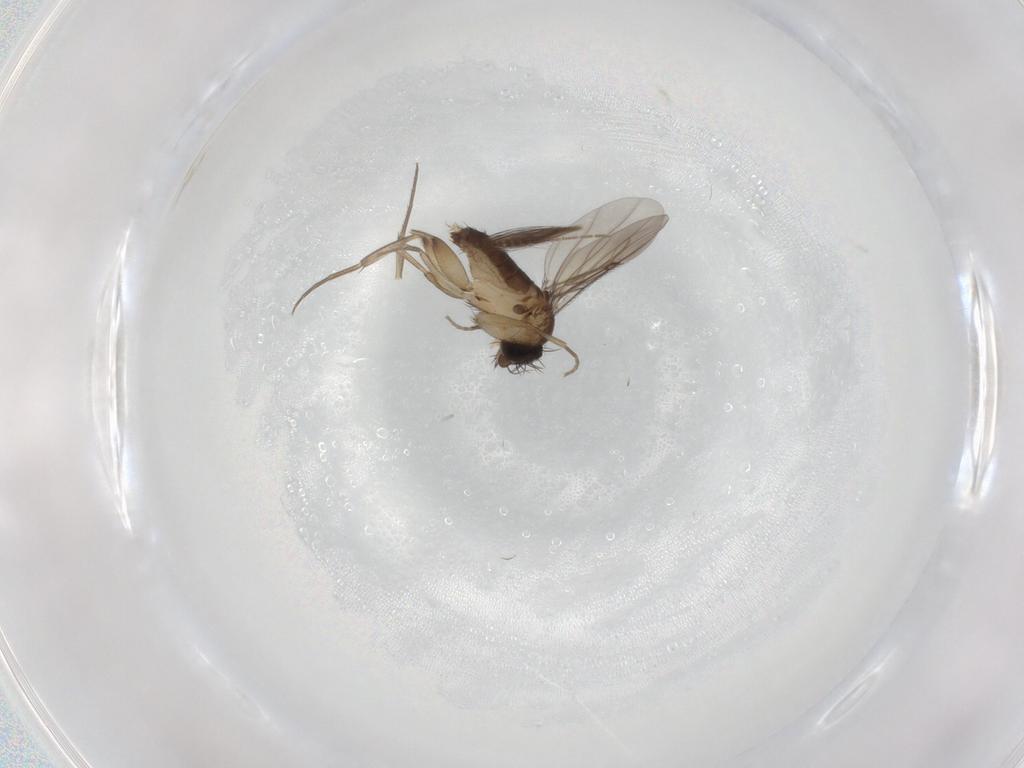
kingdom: Animalia
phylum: Arthropoda
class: Insecta
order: Diptera
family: Phoridae
